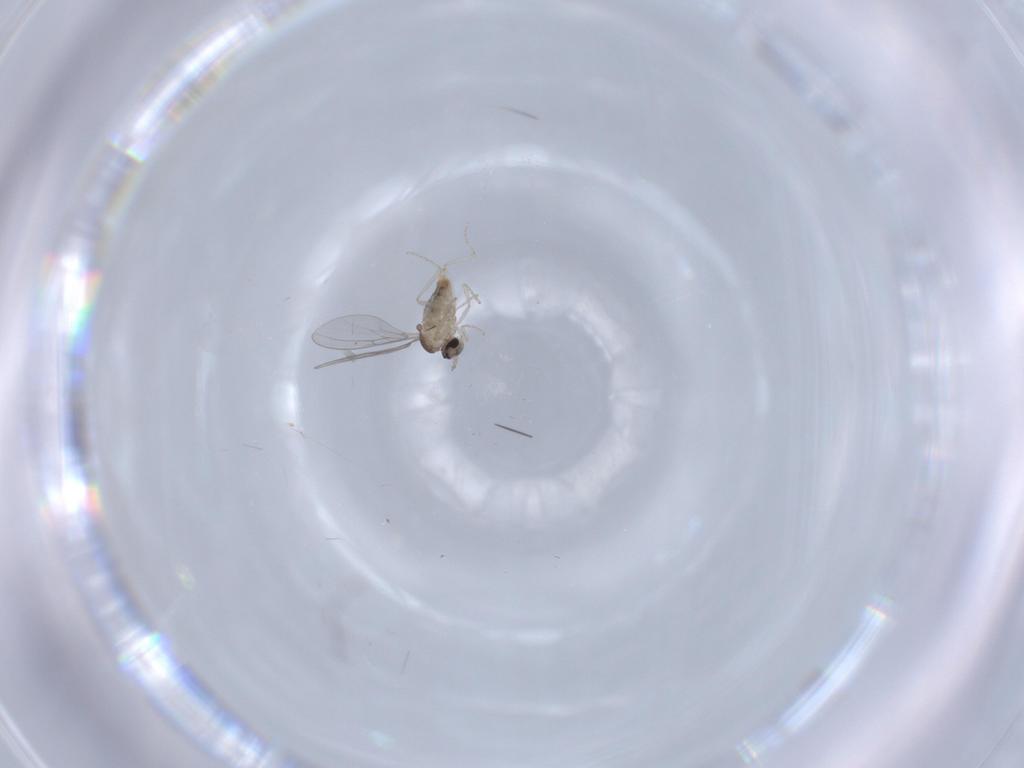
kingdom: Animalia
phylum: Arthropoda
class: Insecta
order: Diptera
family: Cecidomyiidae
